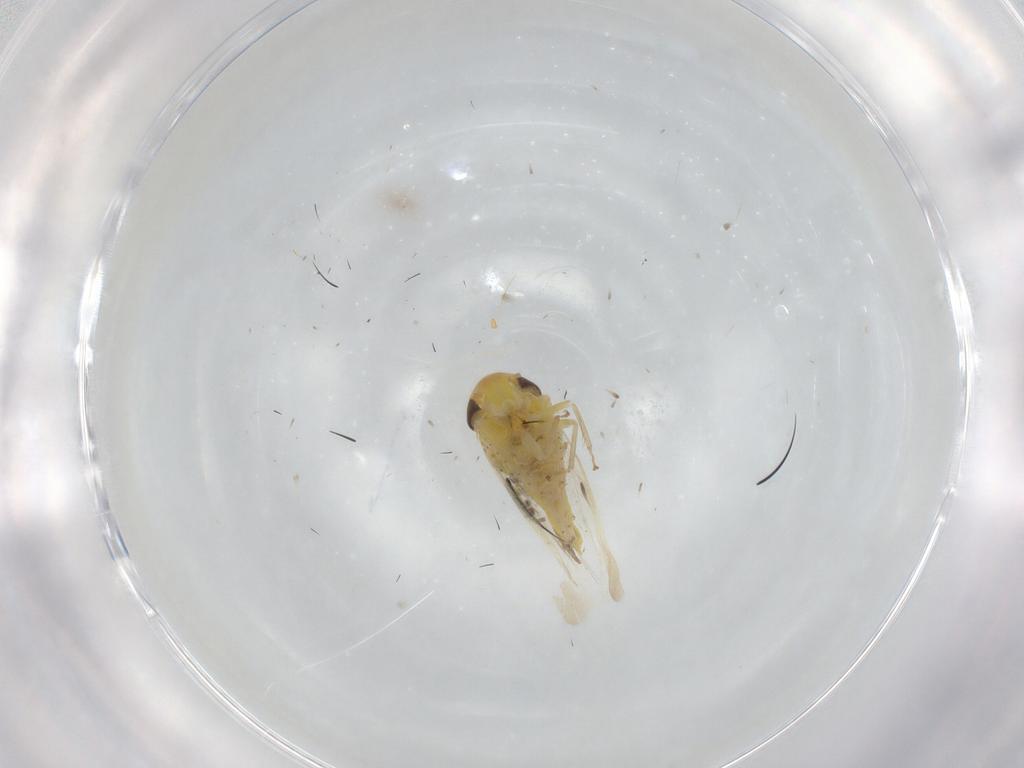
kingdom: Animalia
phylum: Arthropoda
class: Insecta
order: Hemiptera
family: Cicadellidae
